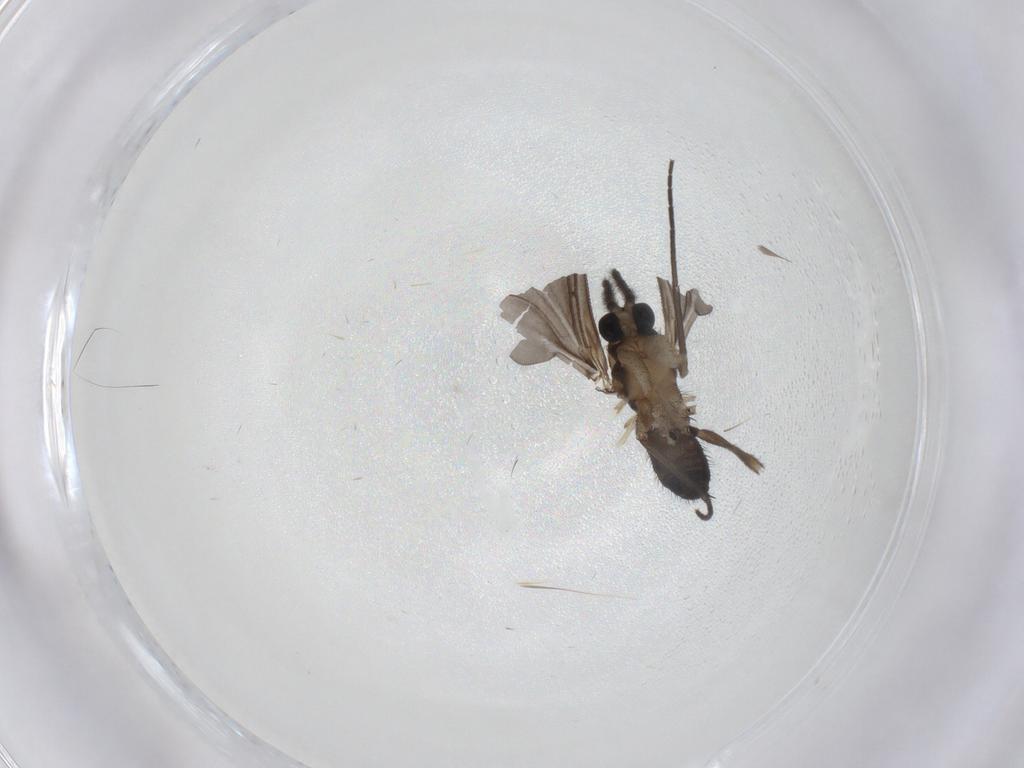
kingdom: Animalia
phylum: Arthropoda
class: Insecta
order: Diptera
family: Sciaridae
